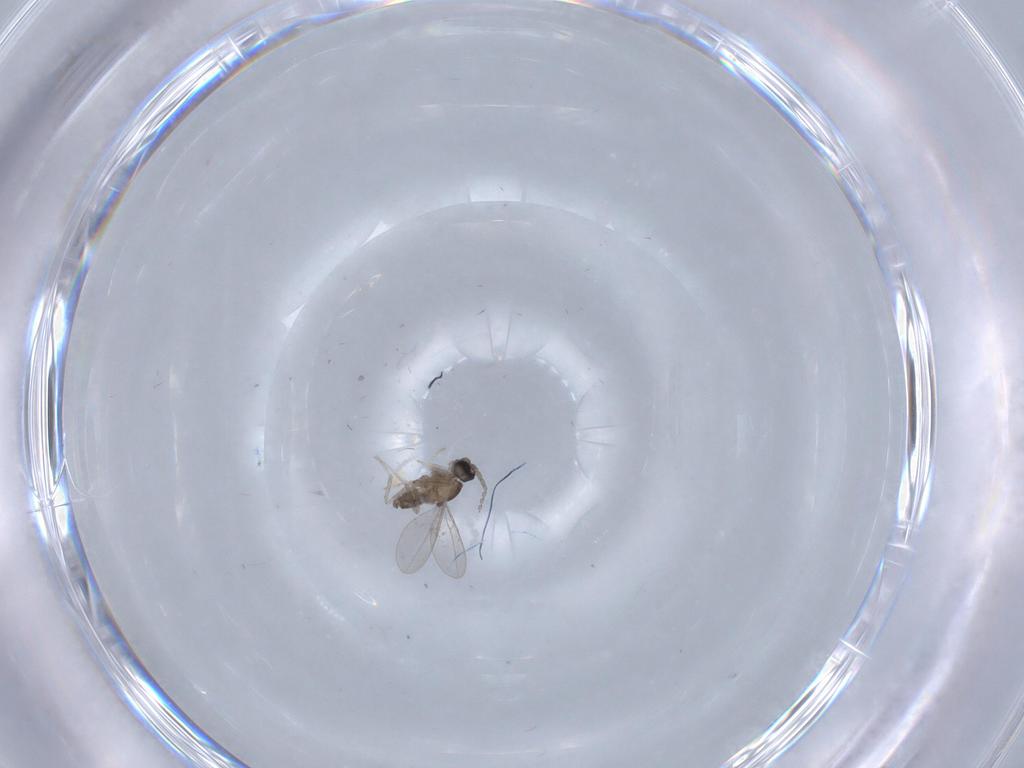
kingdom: Animalia
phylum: Arthropoda
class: Insecta
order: Diptera
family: Cecidomyiidae
